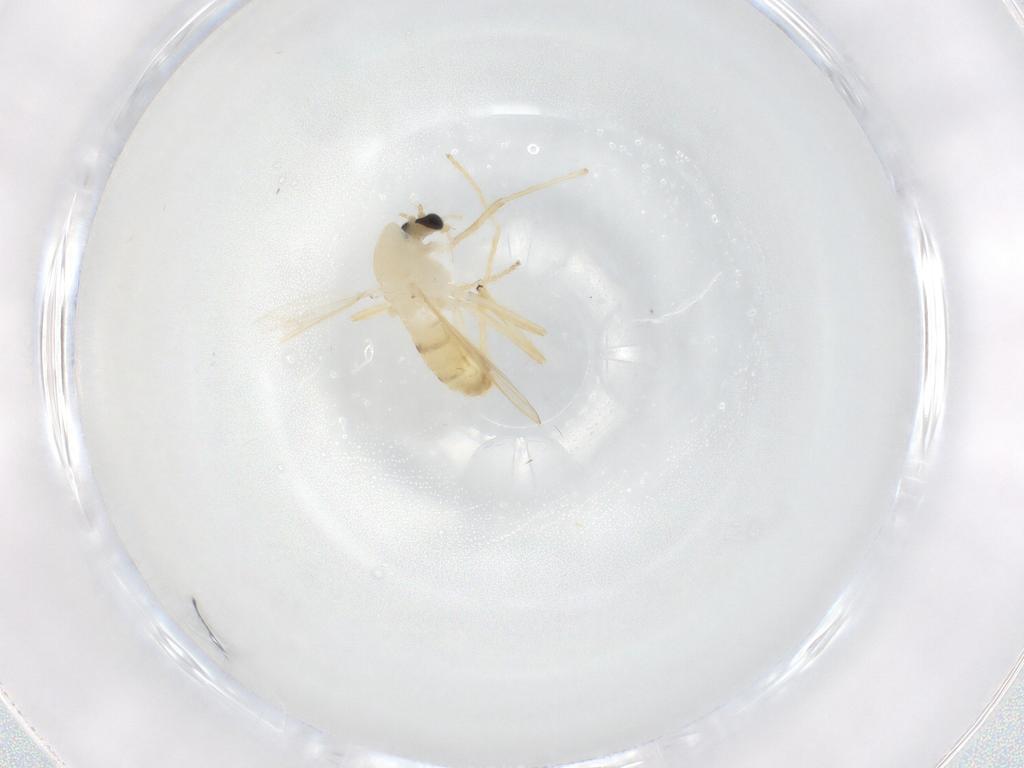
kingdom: Animalia
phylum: Arthropoda
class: Insecta
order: Diptera
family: Chironomidae
